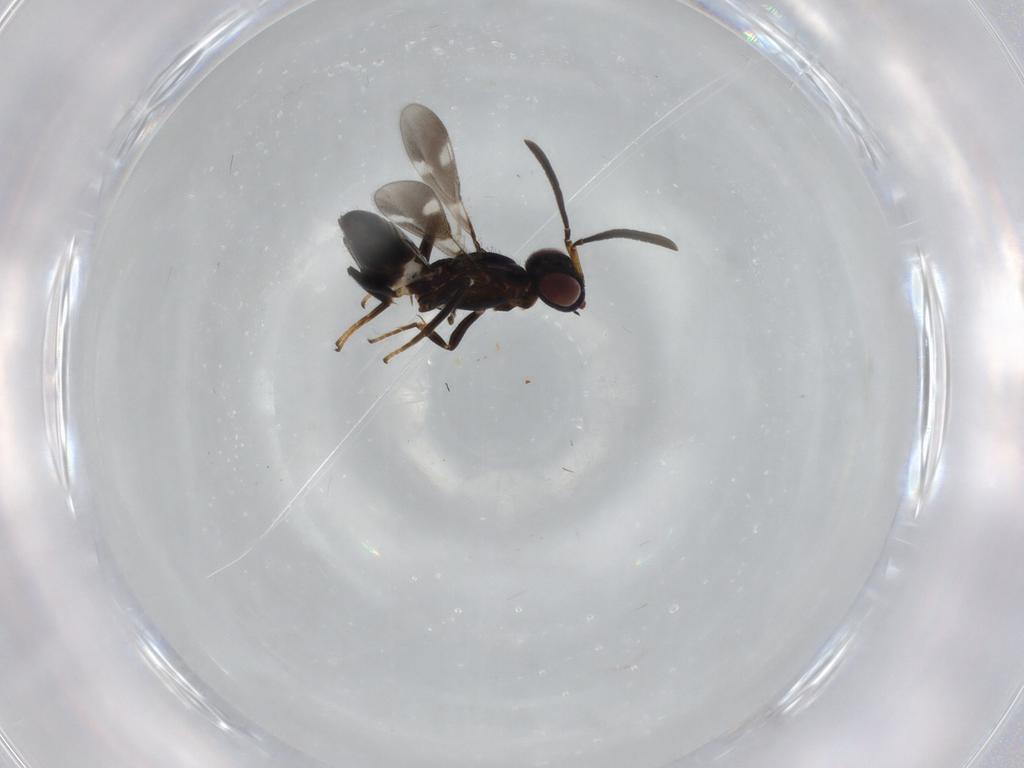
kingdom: Animalia
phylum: Arthropoda
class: Insecta
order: Hymenoptera
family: Eupelmidae
